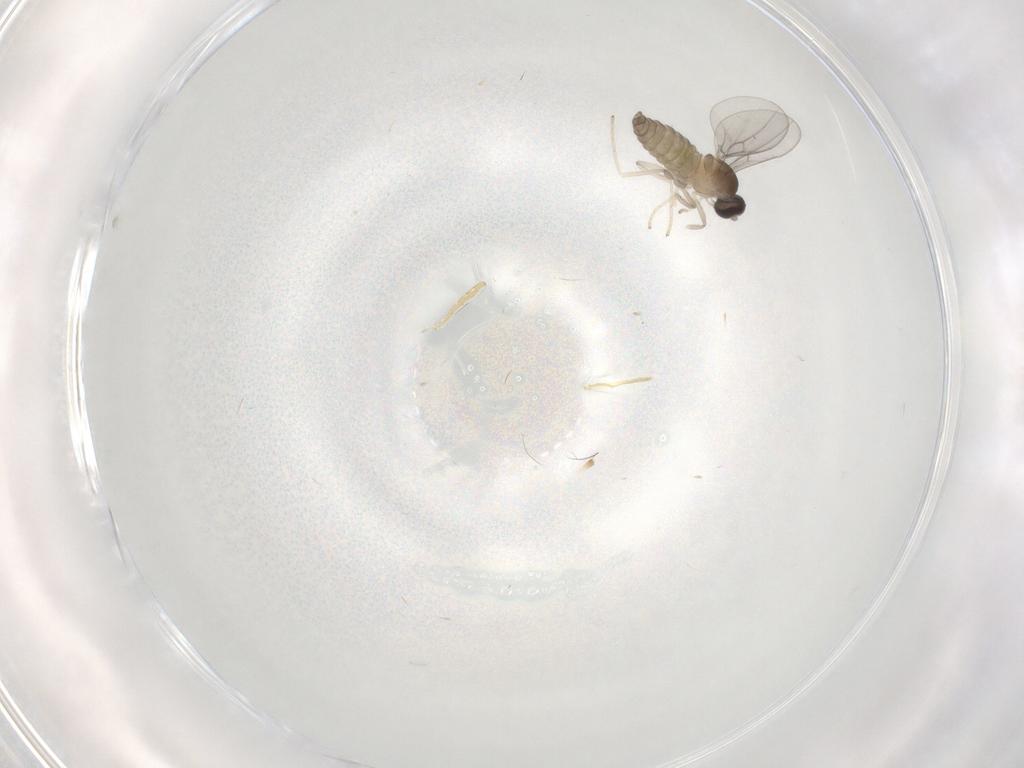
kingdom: Animalia
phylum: Arthropoda
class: Insecta
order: Diptera
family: Cecidomyiidae
